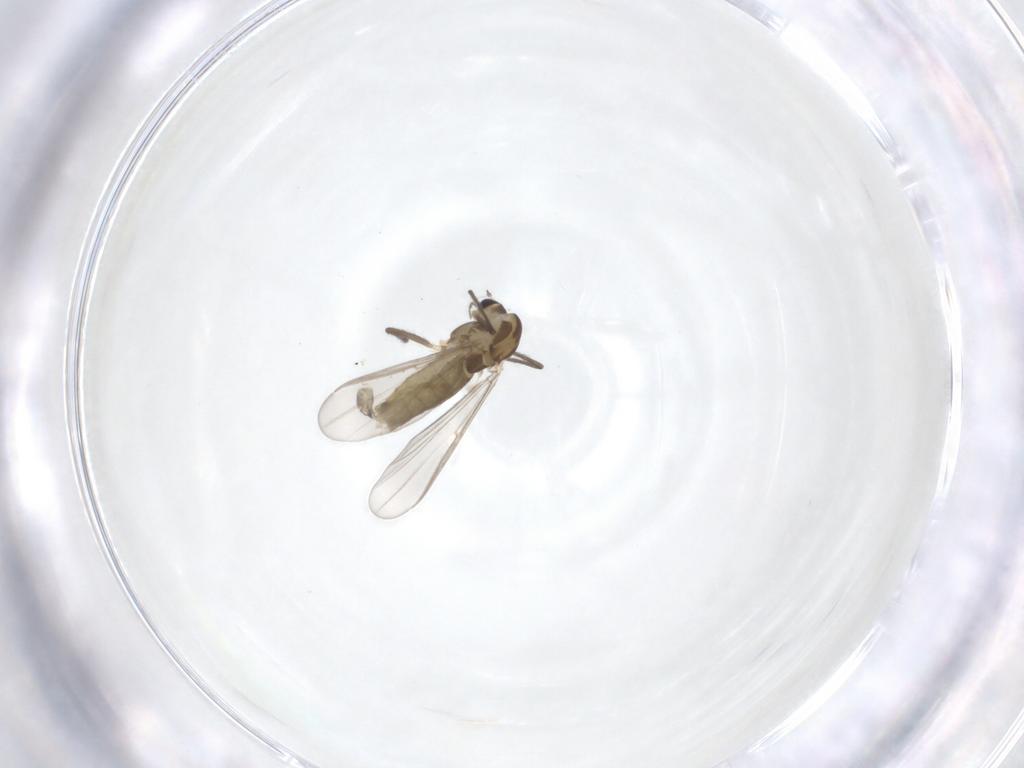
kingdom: Animalia
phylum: Arthropoda
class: Insecta
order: Diptera
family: Chironomidae
